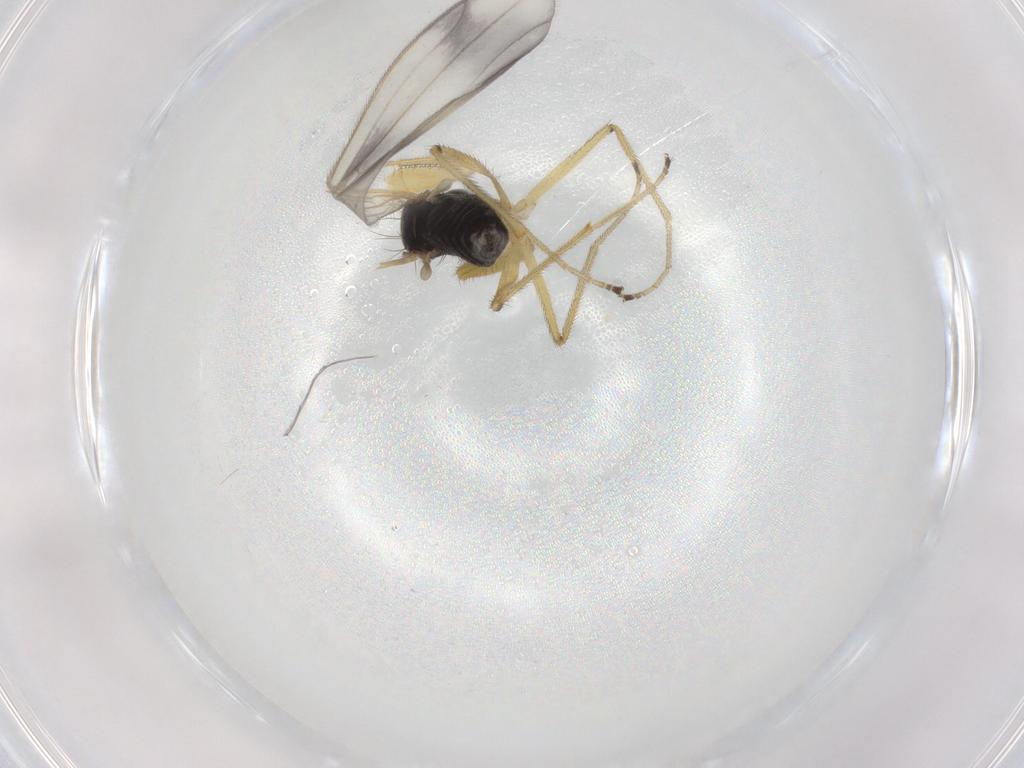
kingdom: Animalia
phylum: Arthropoda
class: Insecta
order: Diptera
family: Empididae
